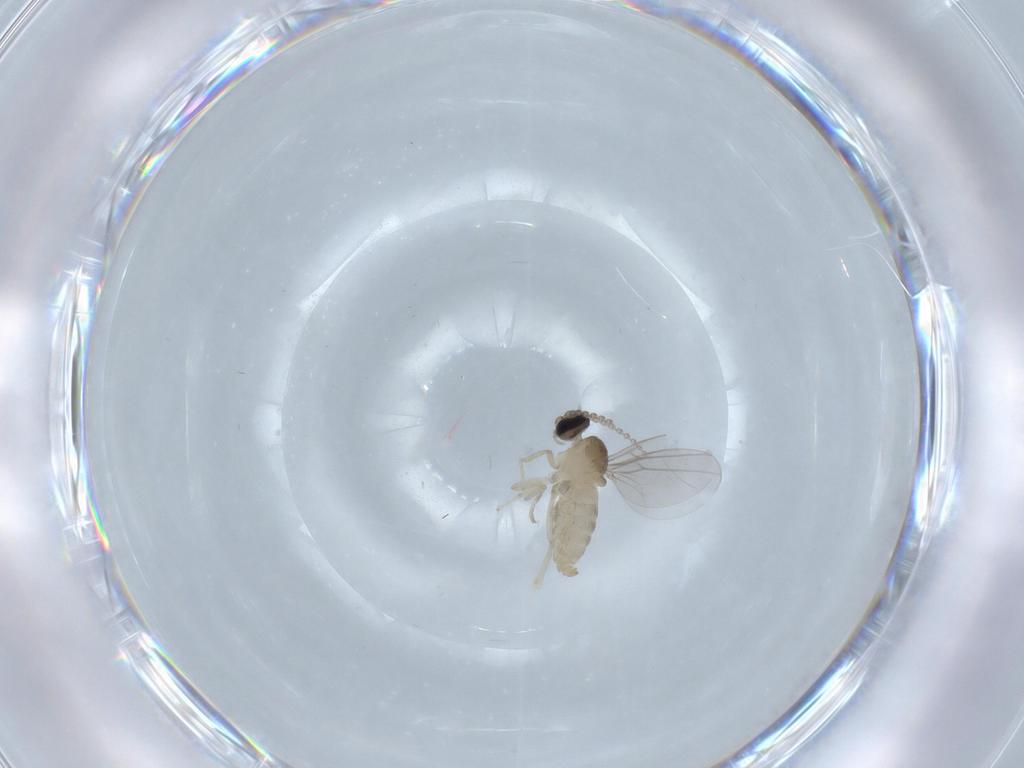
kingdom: Animalia
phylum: Arthropoda
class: Insecta
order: Diptera
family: Cecidomyiidae
